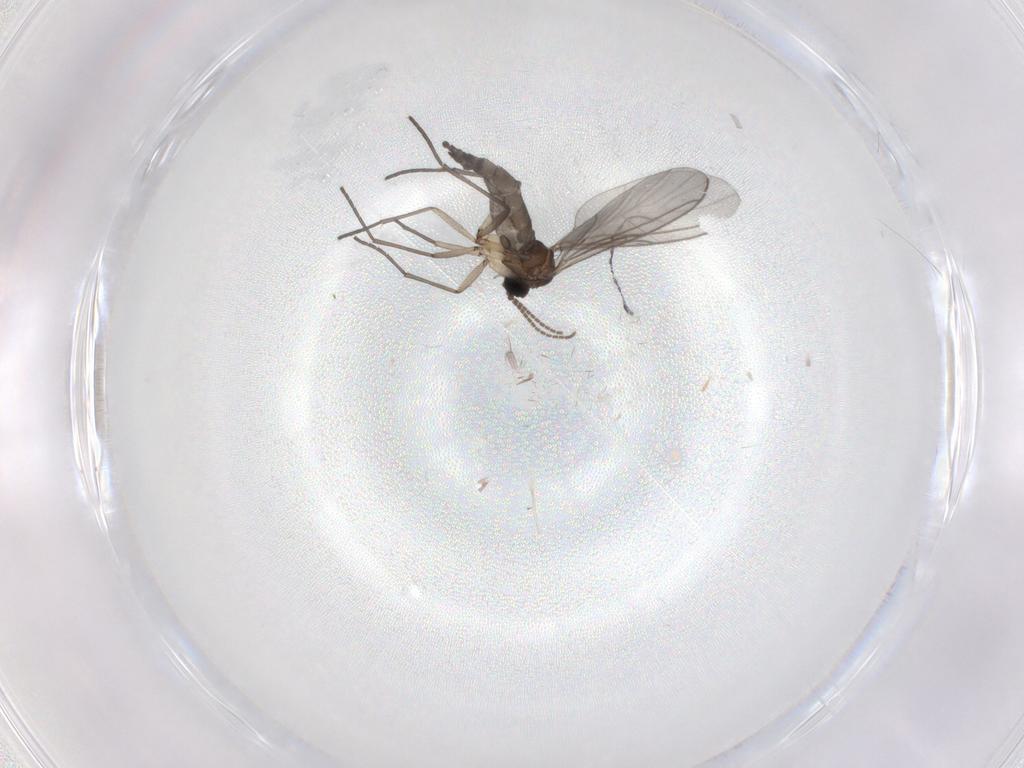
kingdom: Animalia
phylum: Arthropoda
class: Insecta
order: Diptera
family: Sciaridae
